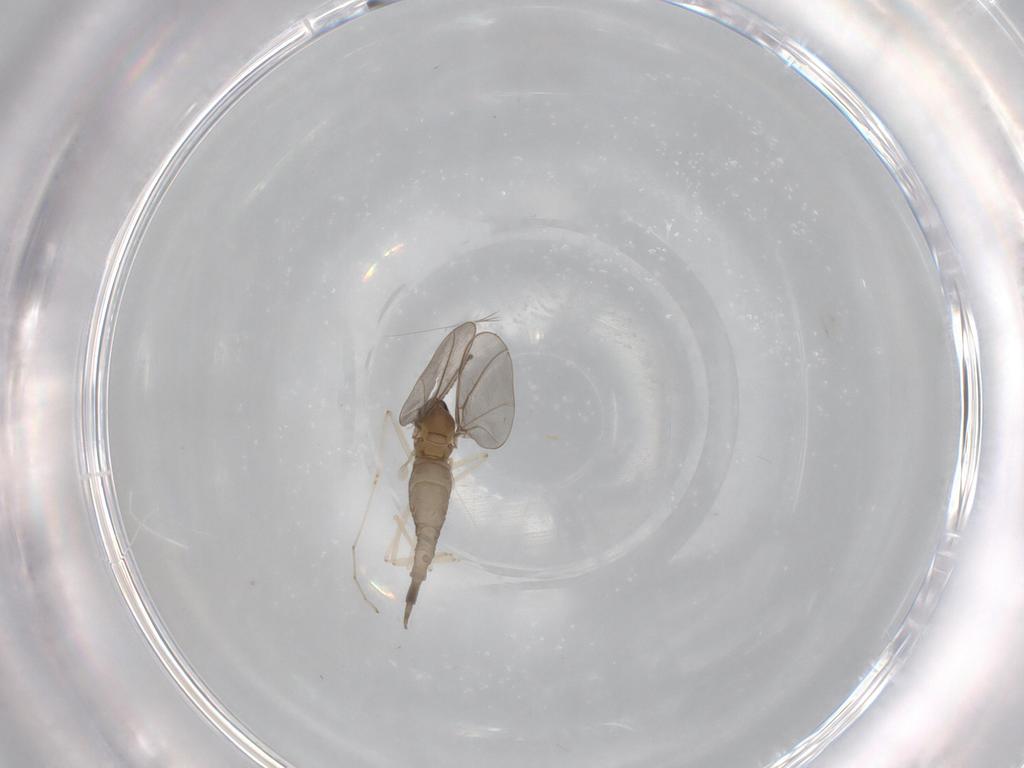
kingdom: Animalia
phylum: Arthropoda
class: Insecta
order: Diptera
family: Cecidomyiidae
